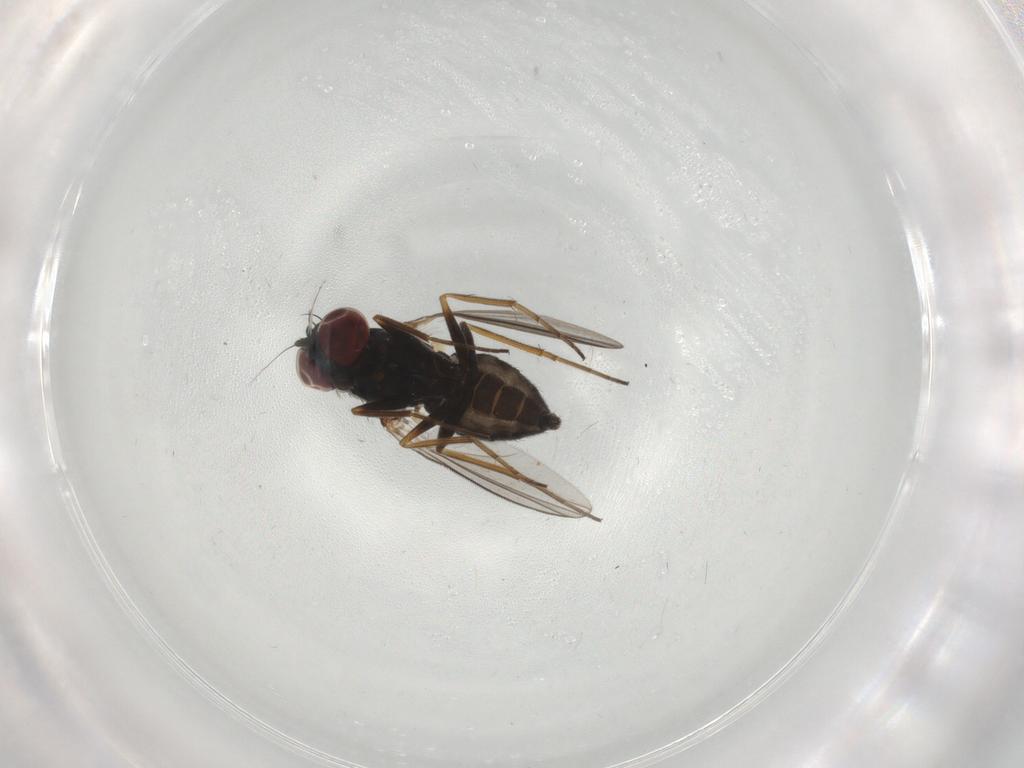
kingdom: Animalia
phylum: Arthropoda
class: Insecta
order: Diptera
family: Dolichopodidae
